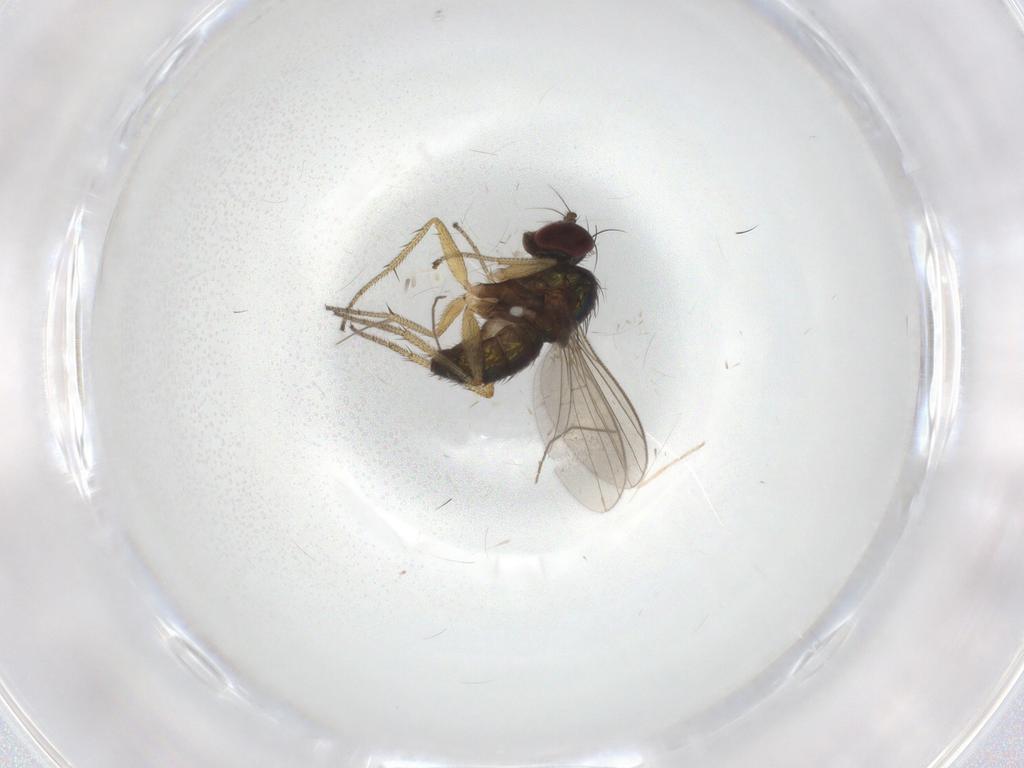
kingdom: Animalia
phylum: Arthropoda
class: Insecta
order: Diptera
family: Chironomidae
